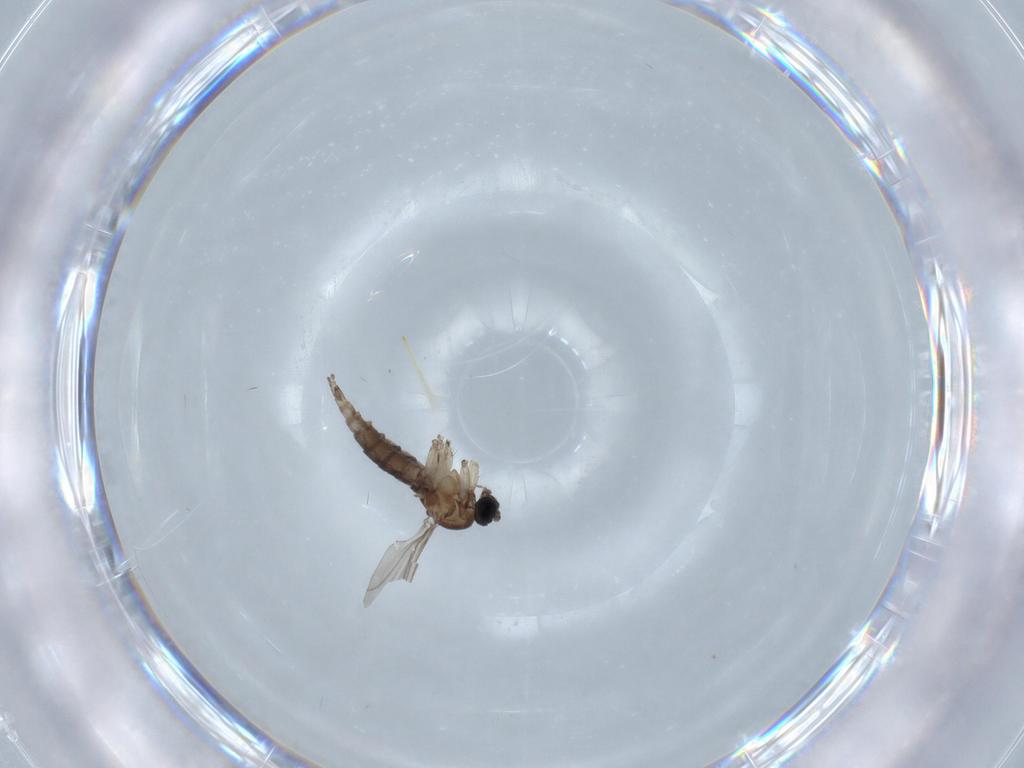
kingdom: Animalia
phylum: Arthropoda
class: Insecta
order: Diptera
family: Sciaridae
